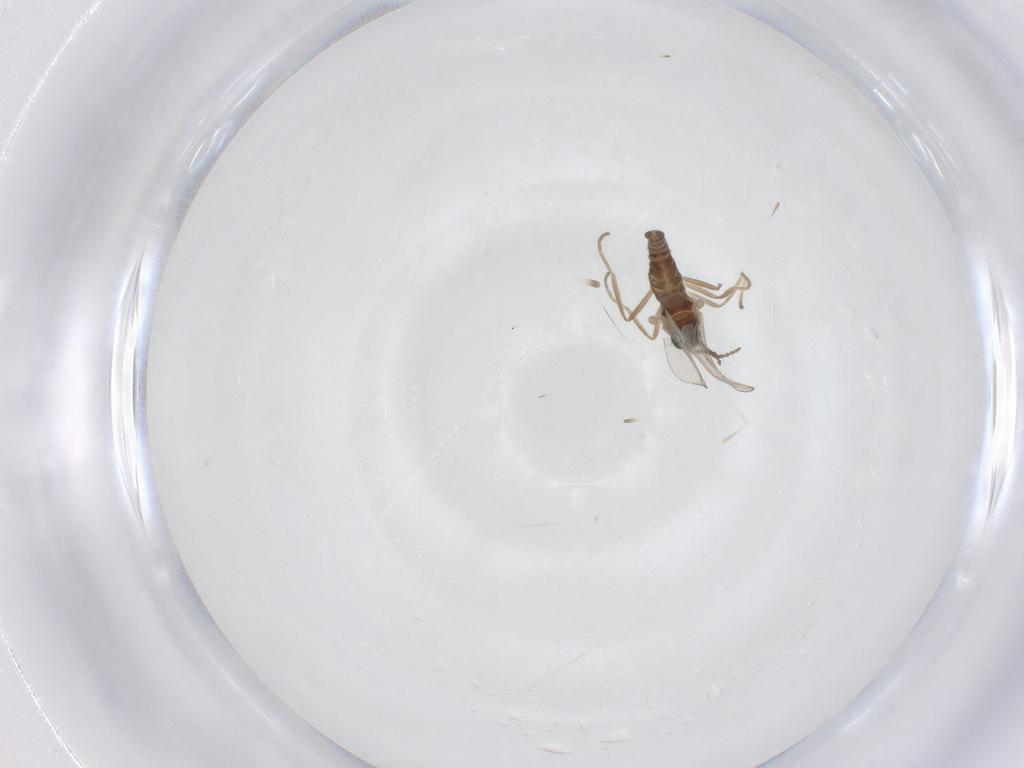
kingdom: Animalia
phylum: Arthropoda
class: Insecta
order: Diptera
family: Cecidomyiidae
